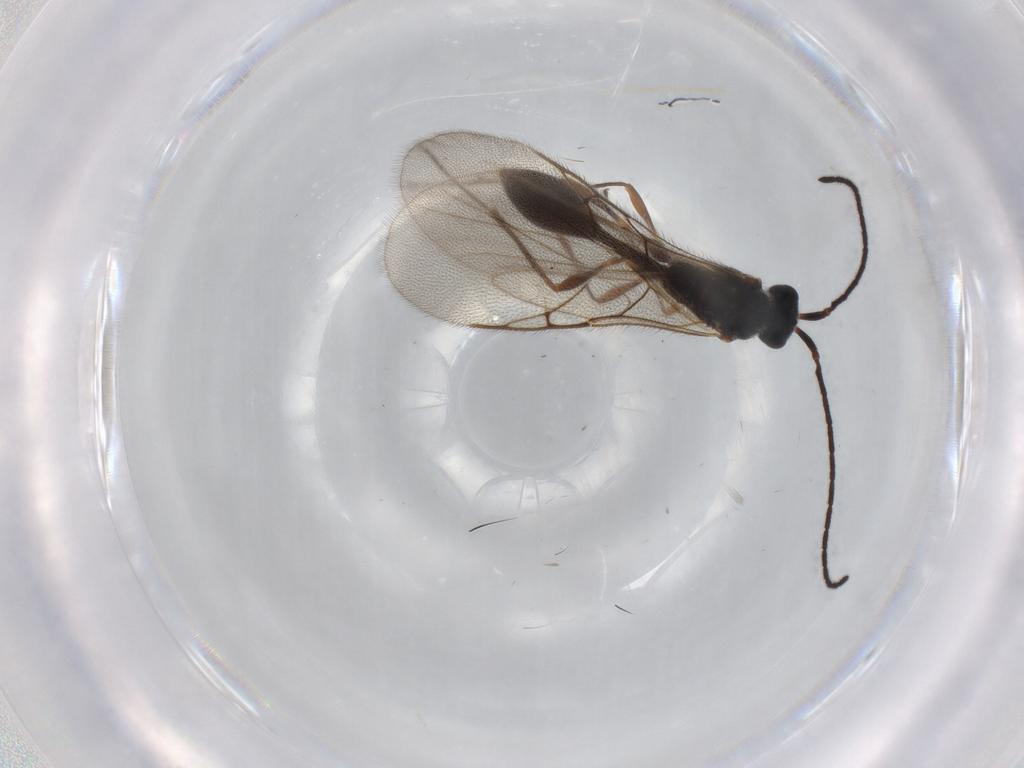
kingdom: Animalia
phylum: Arthropoda
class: Insecta
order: Hymenoptera
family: Diapriidae
